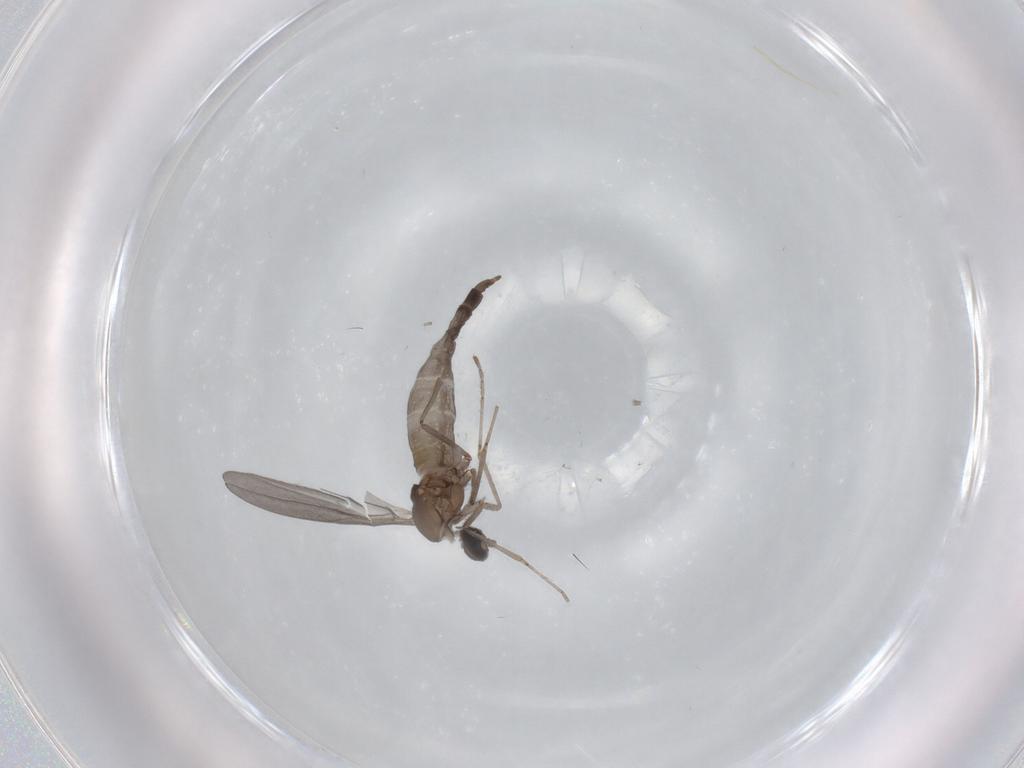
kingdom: Animalia
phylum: Arthropoda
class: Insecta
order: Diptera
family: Cecidomyiidae
